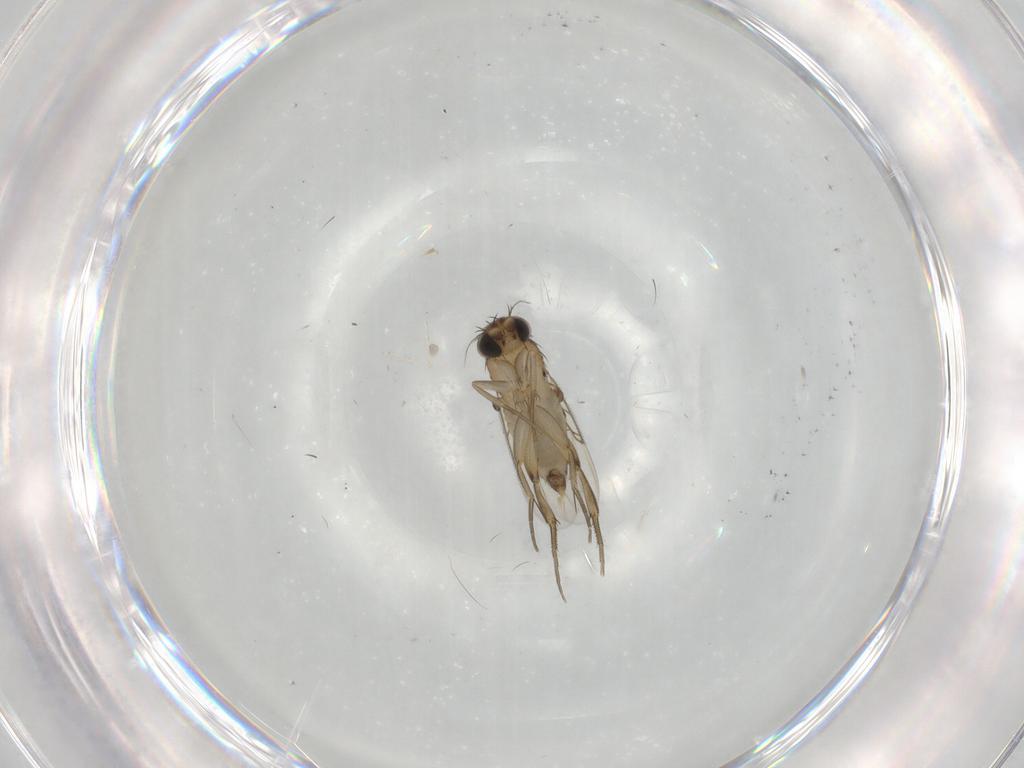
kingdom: Animalia
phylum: Arthropoda
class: Insecta
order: Diptera
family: Phoridae
